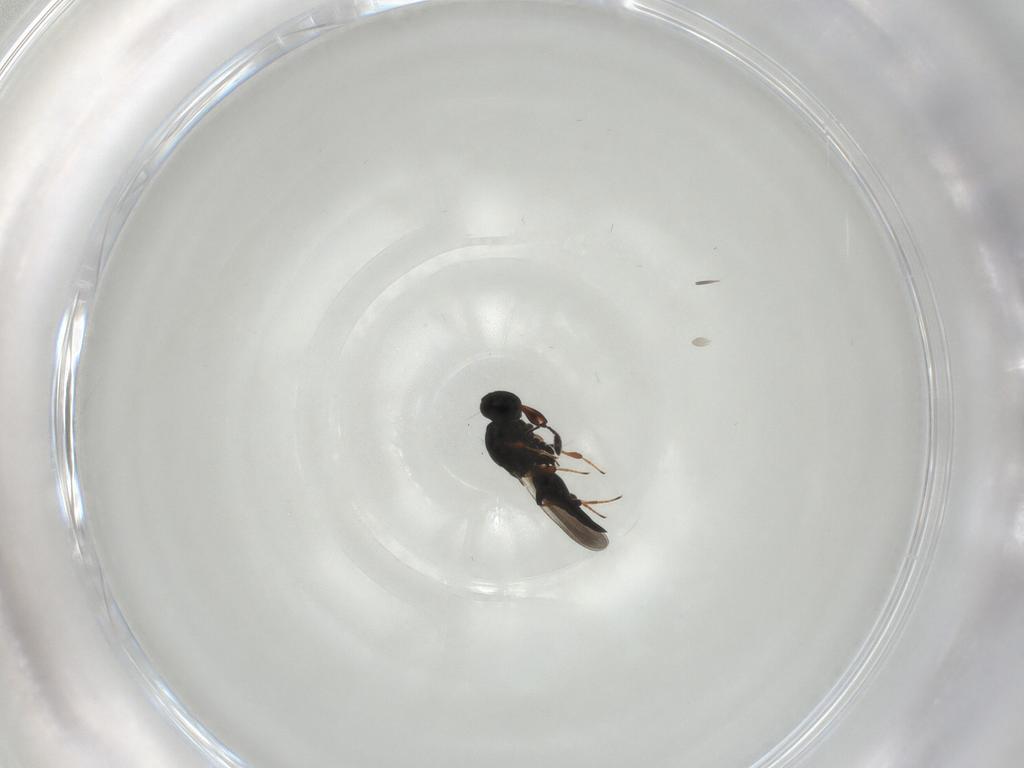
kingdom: Animalia
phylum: Arthropoda
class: Insecta
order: Hymenoptera
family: Platygastridae
